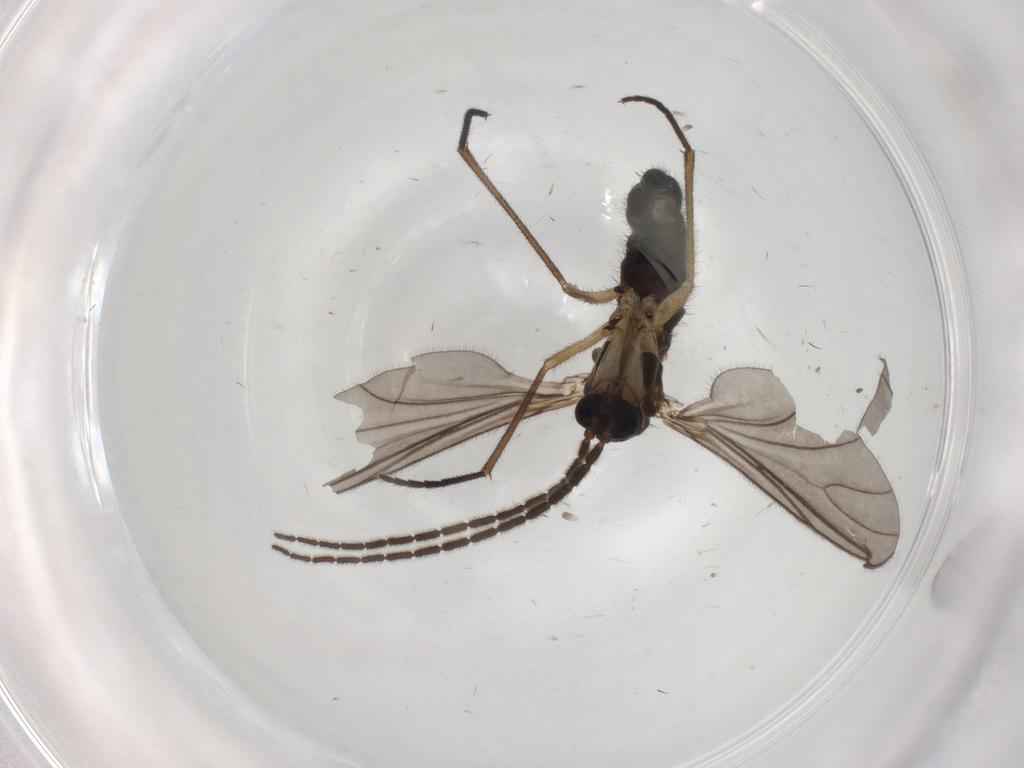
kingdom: Animalia
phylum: Arthropoda
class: Insecta
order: Diptera
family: Sciaridae
